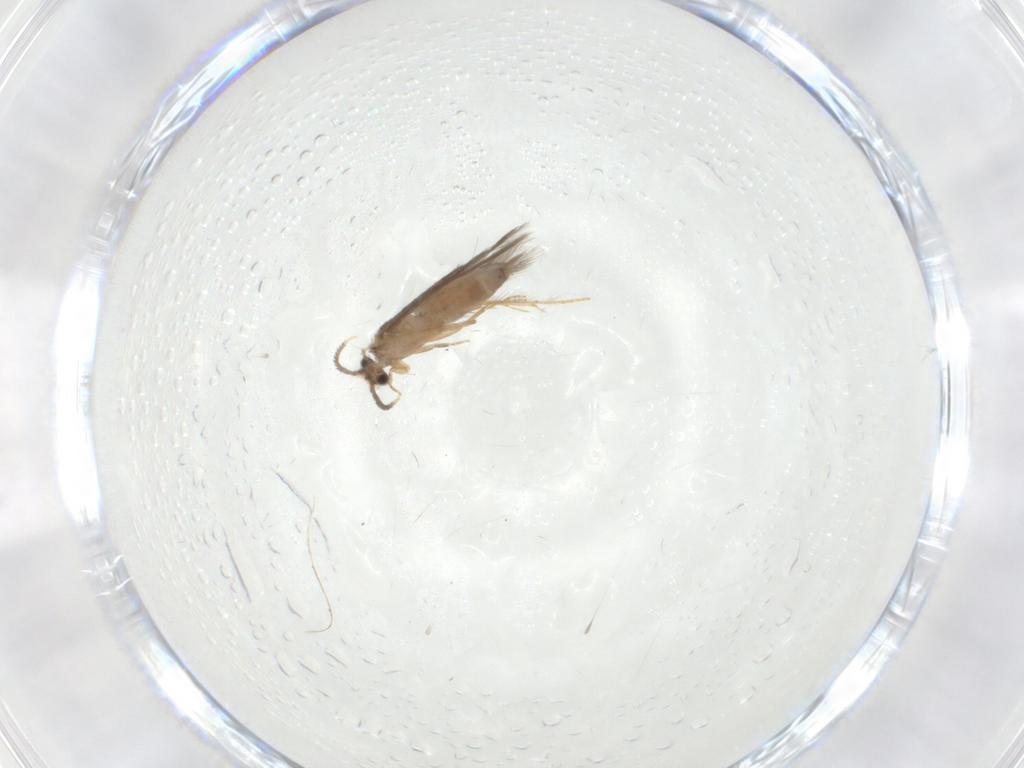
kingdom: Animalia
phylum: Arthropoda
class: Insecta
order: Trichoptera
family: Hydroptilidae
